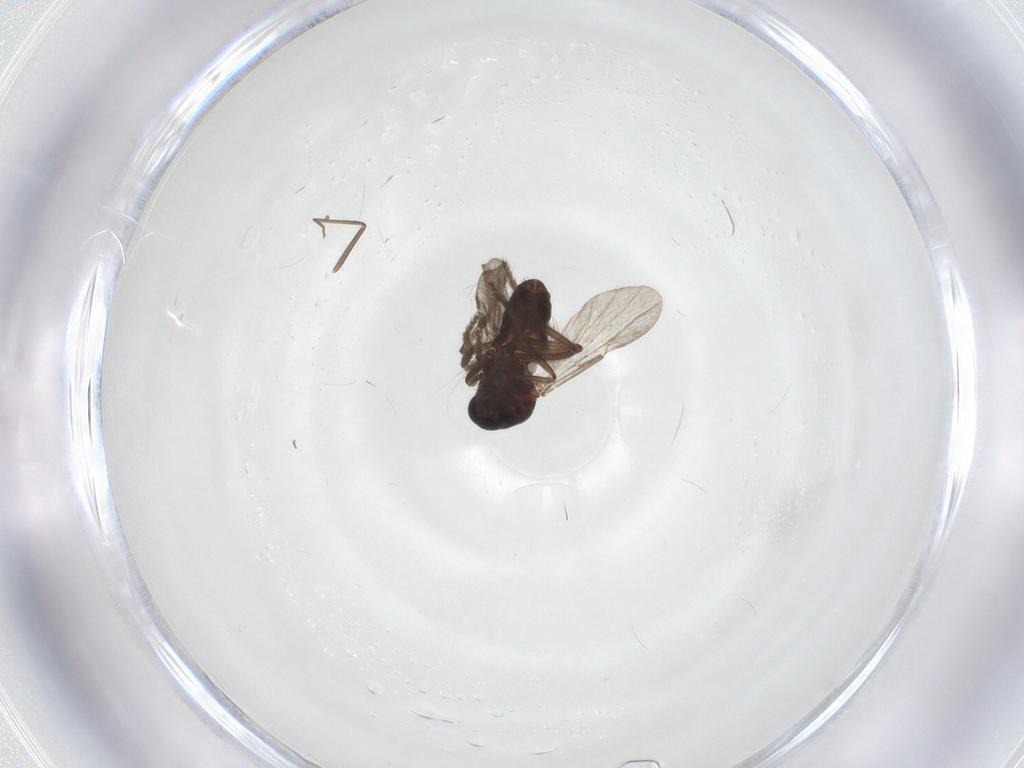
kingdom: Animalia
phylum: Arthropoda
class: Insecta
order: Diptera
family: Ceratopogonidae
